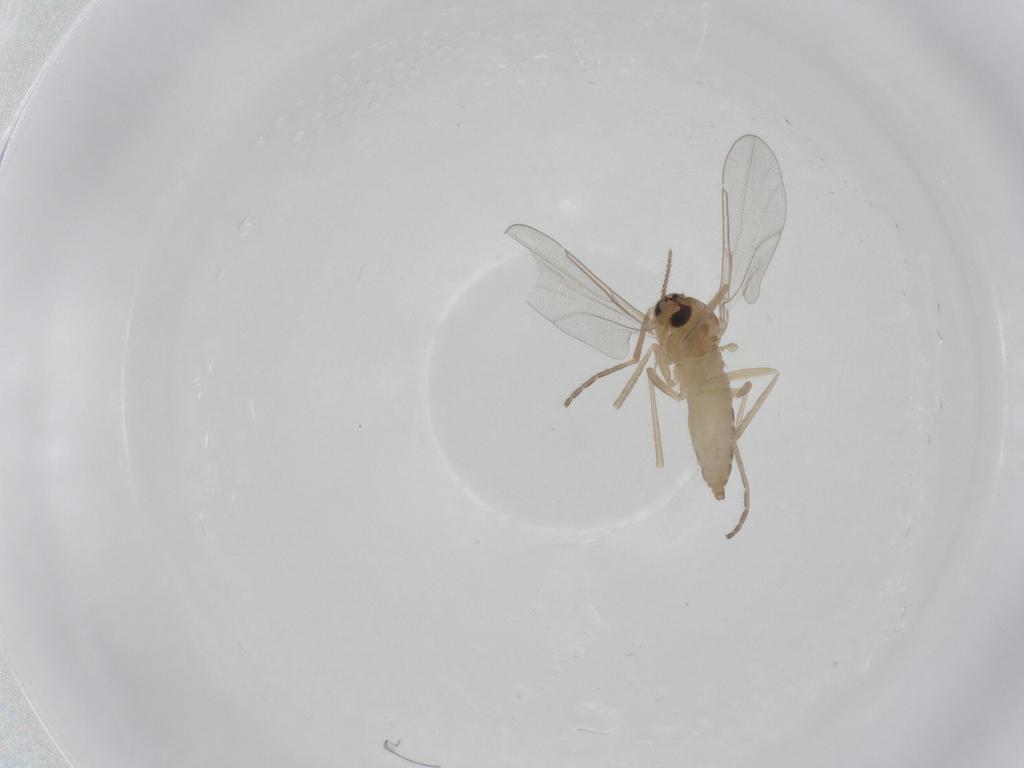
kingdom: Animalia
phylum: Arthropoda
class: Insecta
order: Diptera
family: Cecidomyiidae
